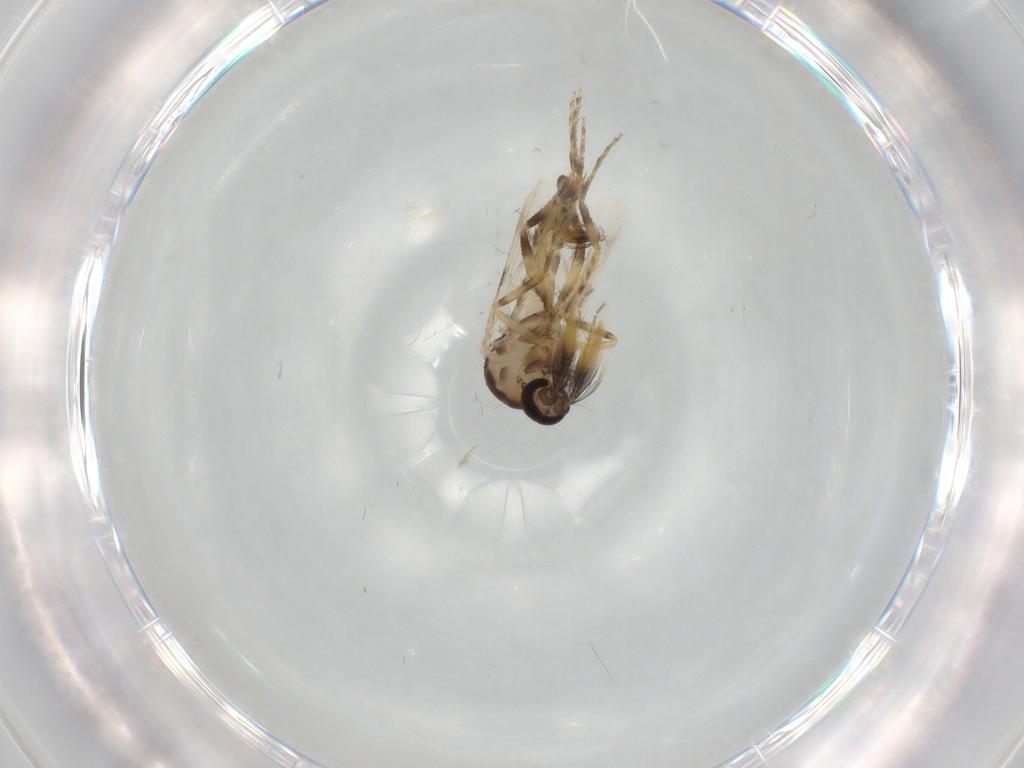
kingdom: Animalia
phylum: Arthropoda
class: Insecta
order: Diptera
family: Ceratopogonidae
